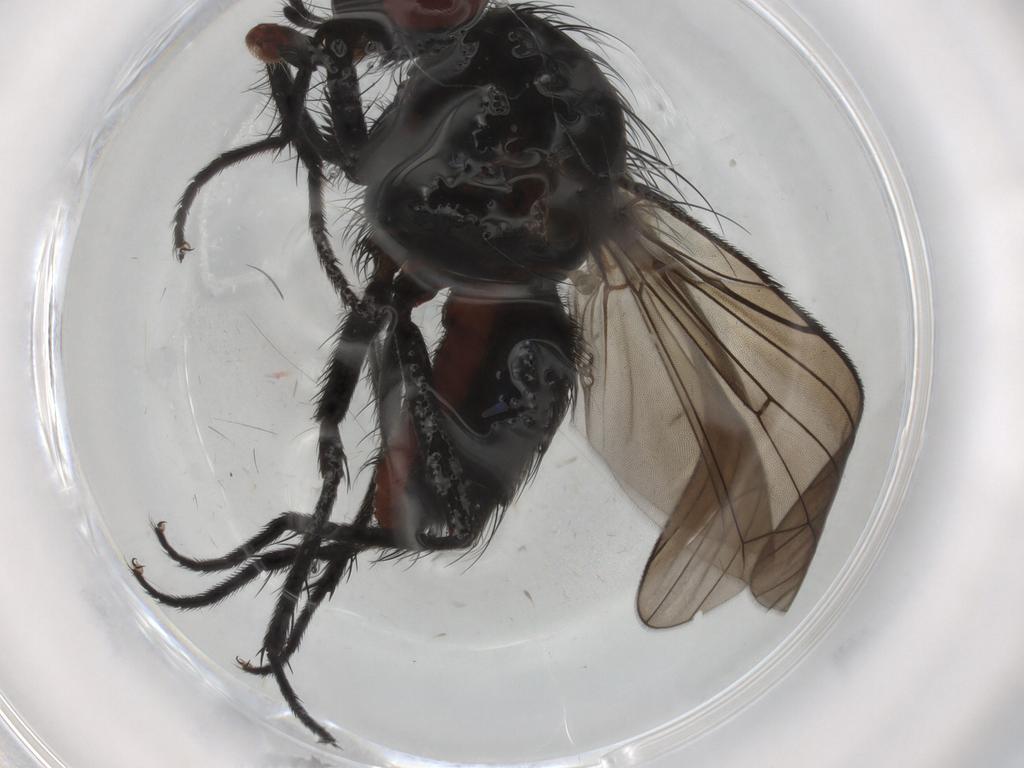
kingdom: Animalia
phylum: Arthropoda
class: Insecta
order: Diptera
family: Anthomyiidae
